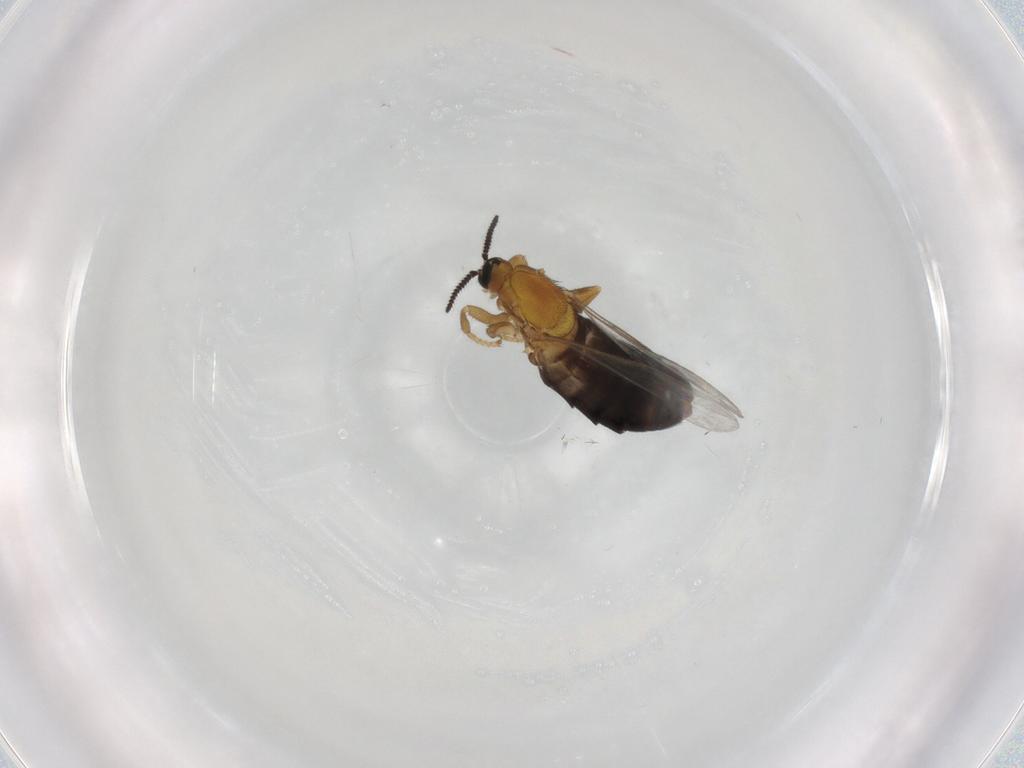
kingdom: Animalia
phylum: Arthropoda
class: Insecta
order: Diptera
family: Scatopsidae
